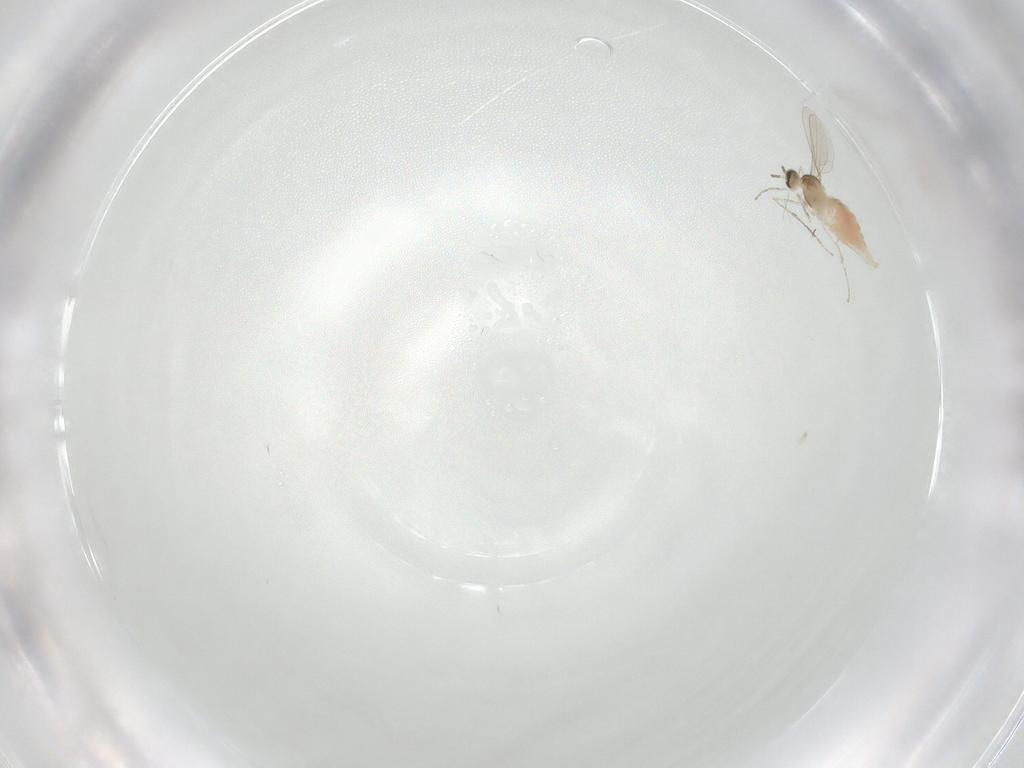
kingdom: Animalia
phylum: Arthropoda
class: Insecta
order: Diptera
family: Cecidomyiidae
